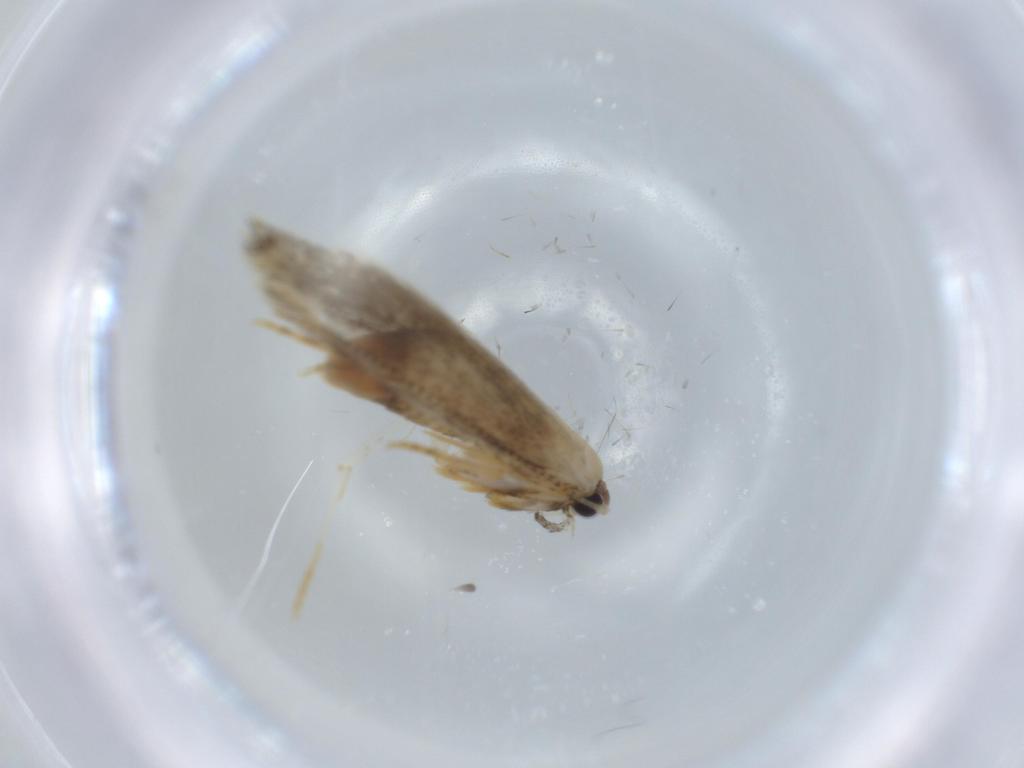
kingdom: Animalia
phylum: Arthropoda
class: Insecta
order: Lepidoptera
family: Tineidae
